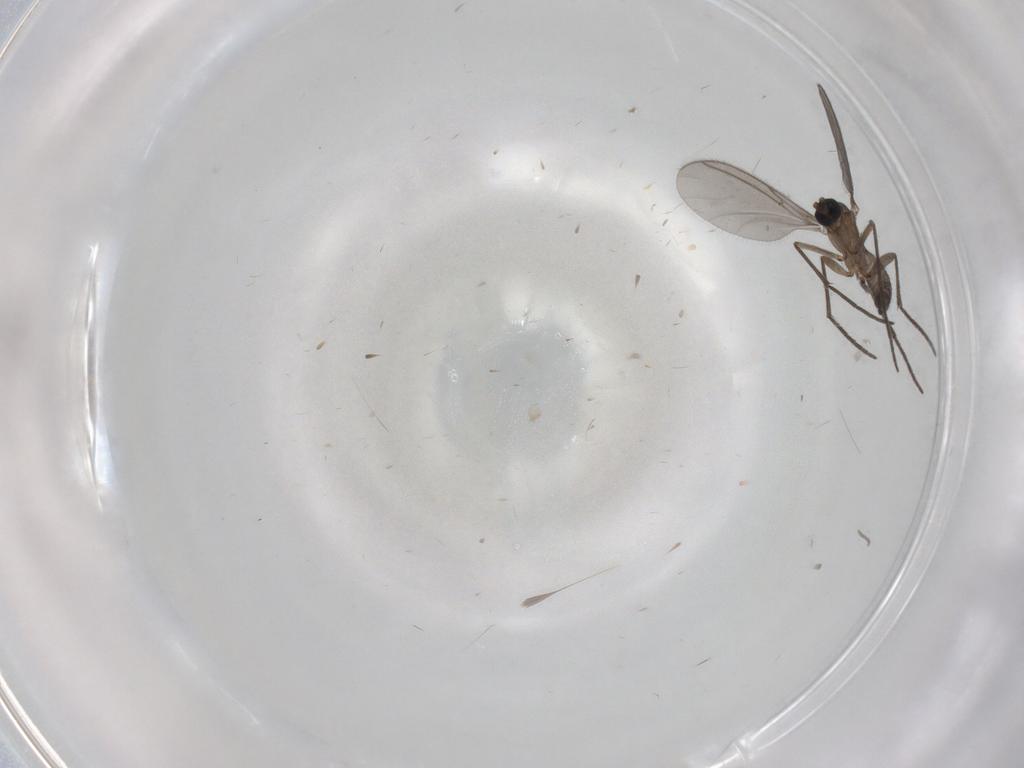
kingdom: Animalia
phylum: Arthropoda
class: Insecta
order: Diptera
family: Sciaridae
